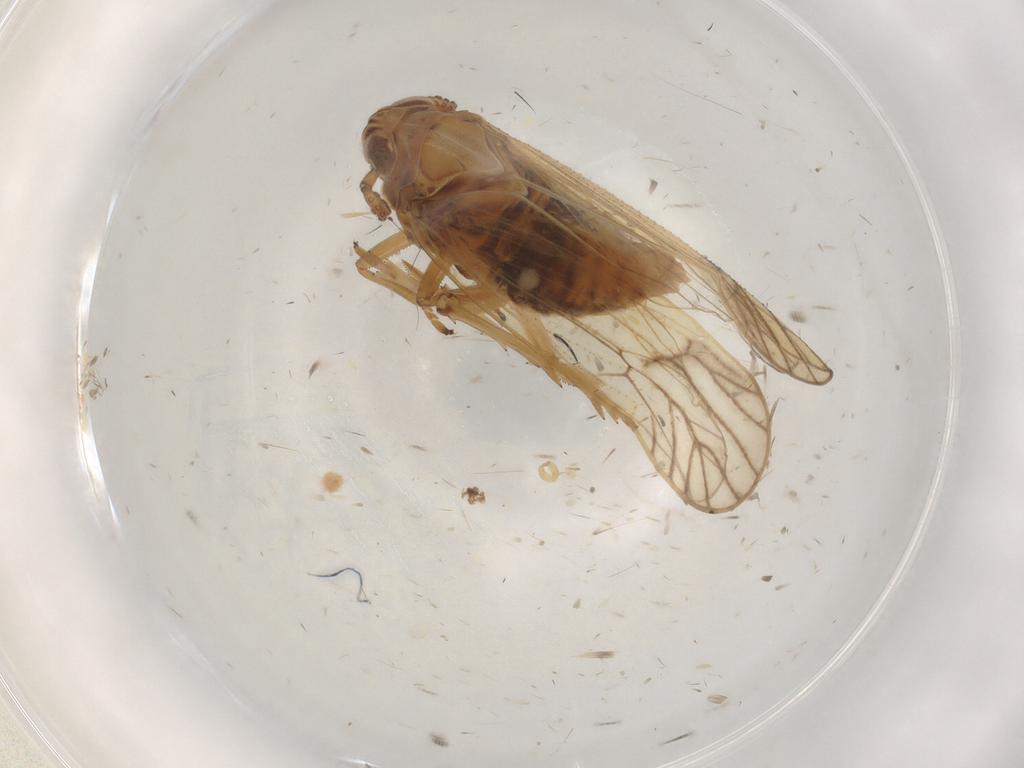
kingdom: Animalia
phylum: Arthropoda
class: Insecta
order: Hemiptera
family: Delphacidae
